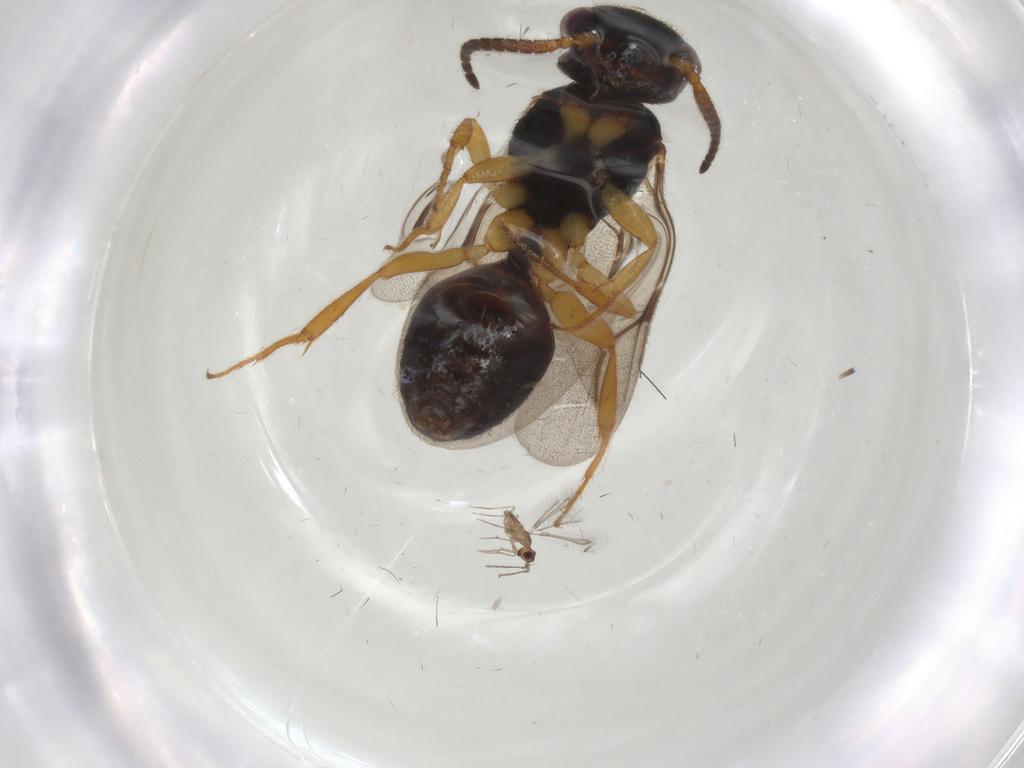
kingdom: Animalia
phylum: Arthropoda
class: Insecta
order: Hymenoptera
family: Bethylidae
